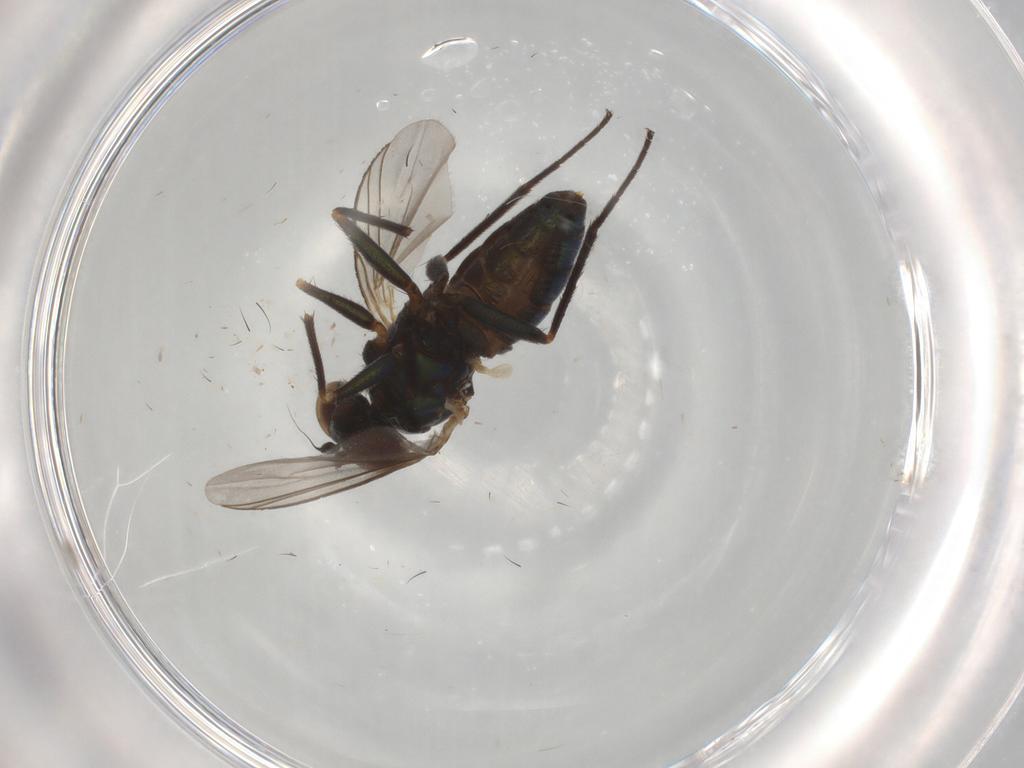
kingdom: Animalia
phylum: Arthropoda
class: Insecta
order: Diptera
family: Dolichopodidae
